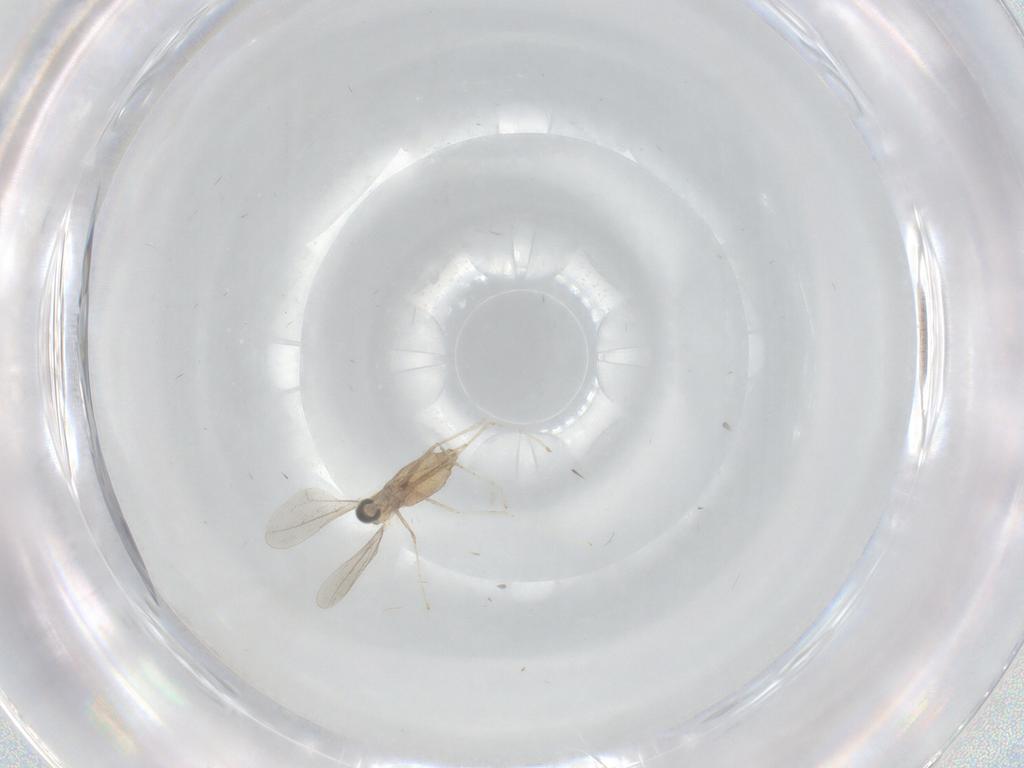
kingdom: Animalia
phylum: Arthropoda
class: Insecta
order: Diptera
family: Cecidomyiidae
